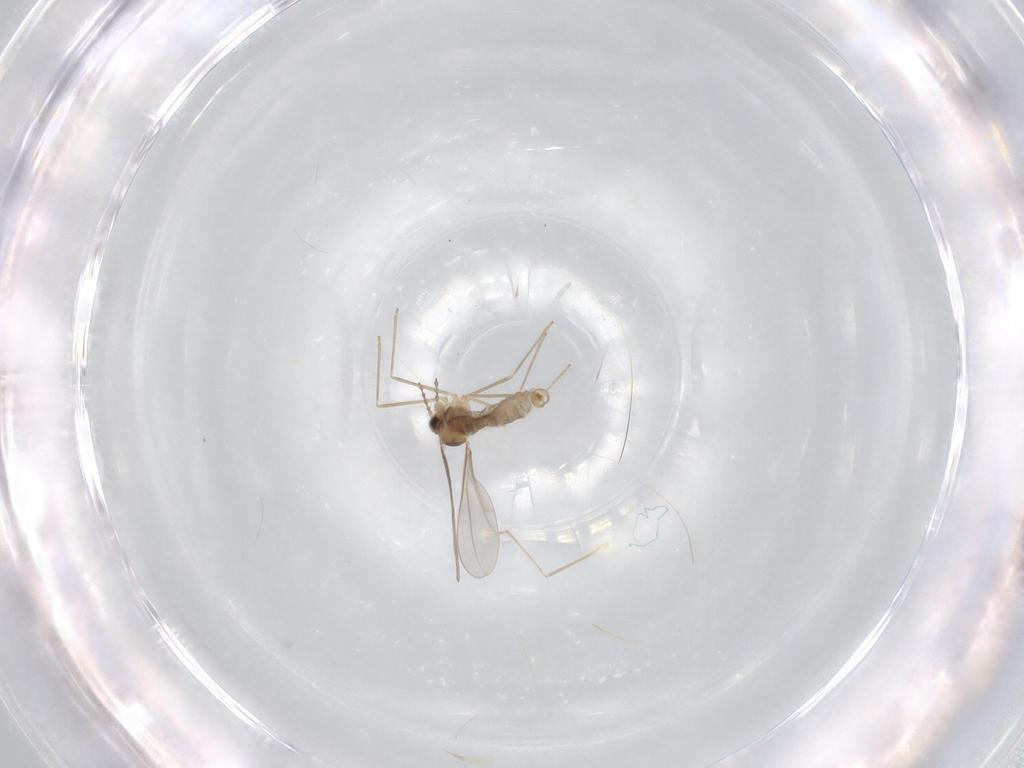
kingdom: Animalia
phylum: Arthropoda
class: Insecta
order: Diptera
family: Cecidomyiidae
